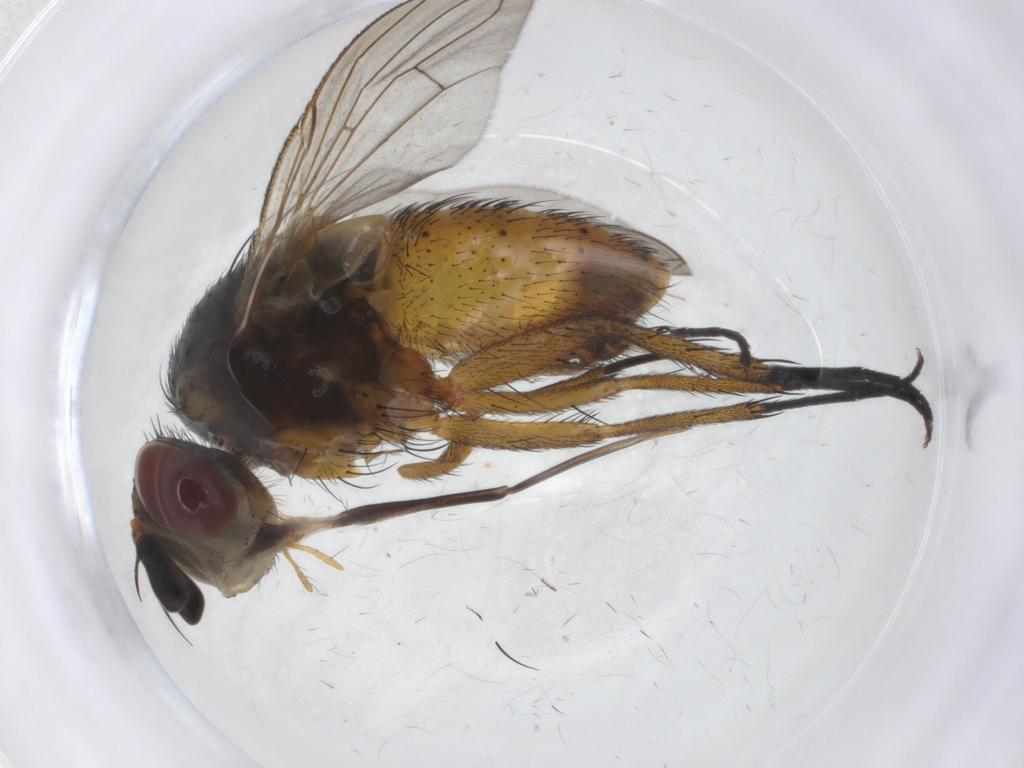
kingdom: Animalia
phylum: Arthropoda
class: Insecta
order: Diptera
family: Tachinidae
